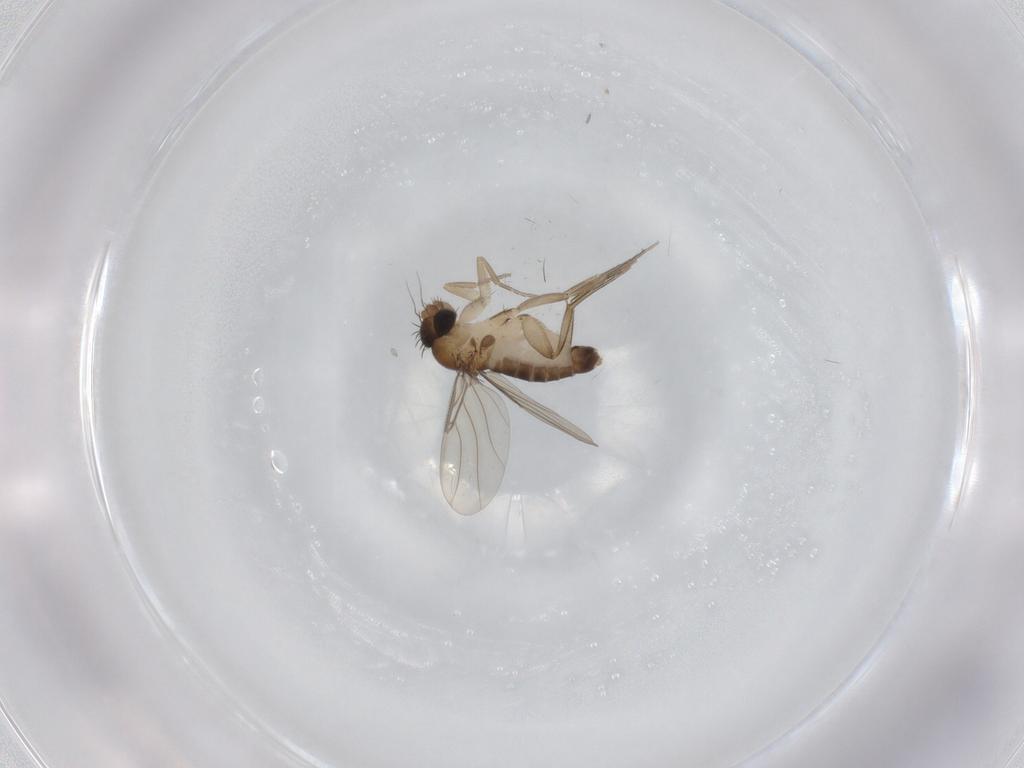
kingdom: Animalia
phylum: Arthropoda
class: Insecta
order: Diptera
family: Phoridae
